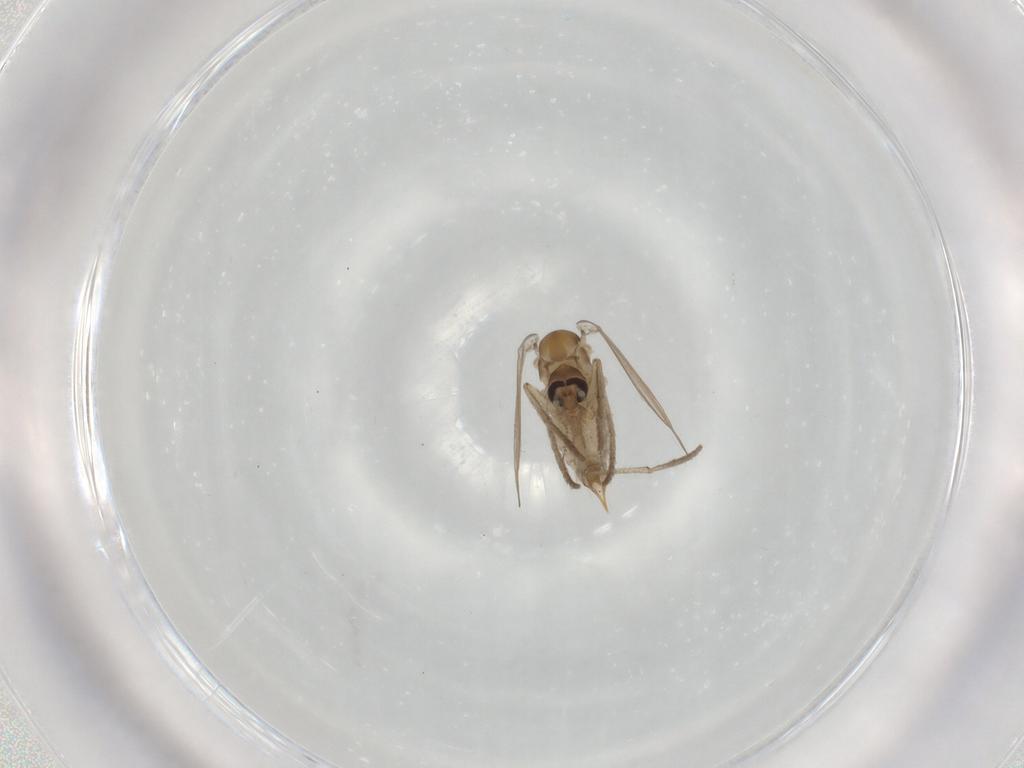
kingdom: Animalia
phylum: Arthropoda
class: Insecta
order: Diptera
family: Psychodidae
